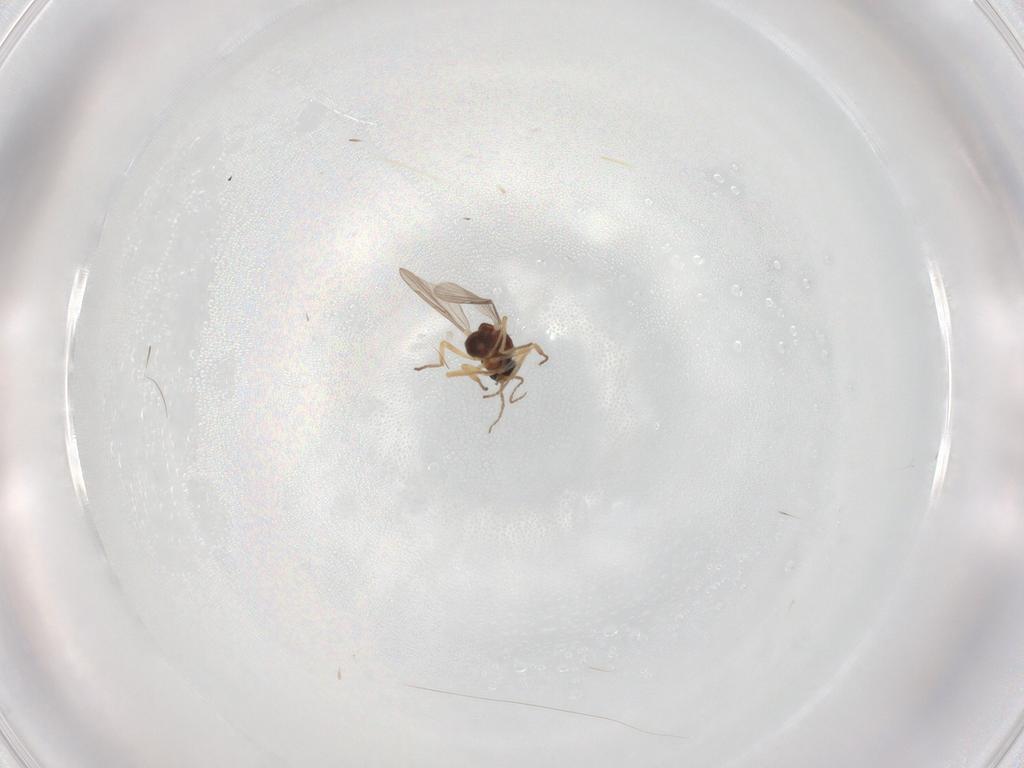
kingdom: Animalia
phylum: Arthropoda
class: Insecta
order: Diptera
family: Ceratopogonidae
